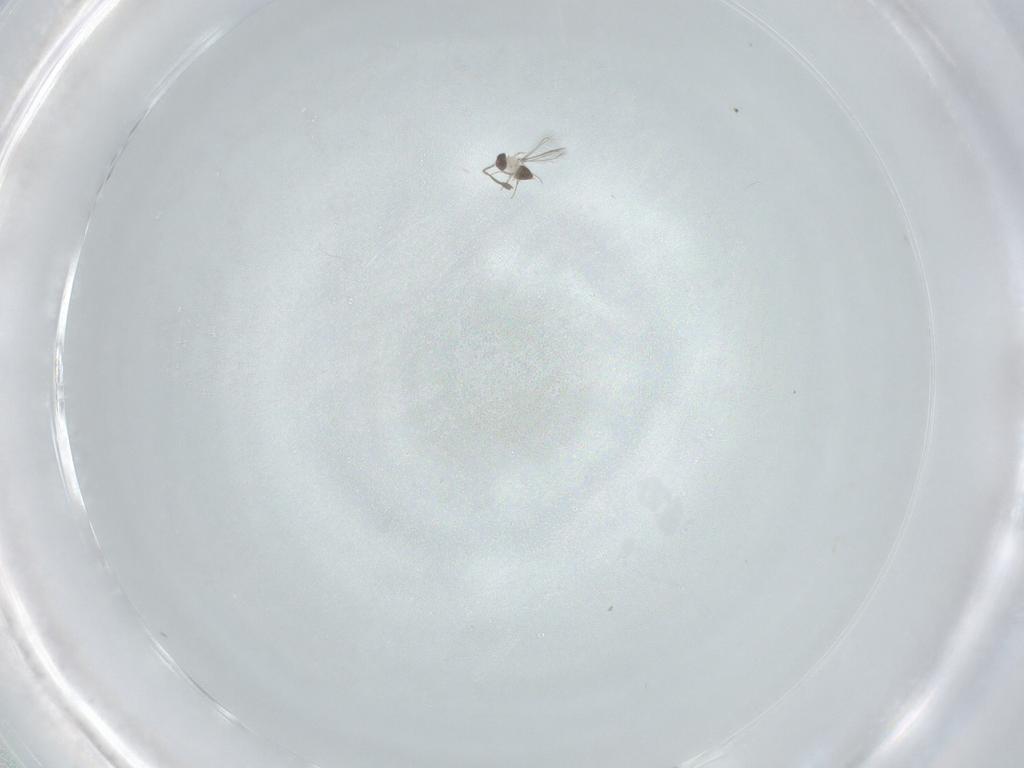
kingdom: Animalia
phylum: Arthropoda
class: Insecta
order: Hymenoptera
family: Mymaridae
